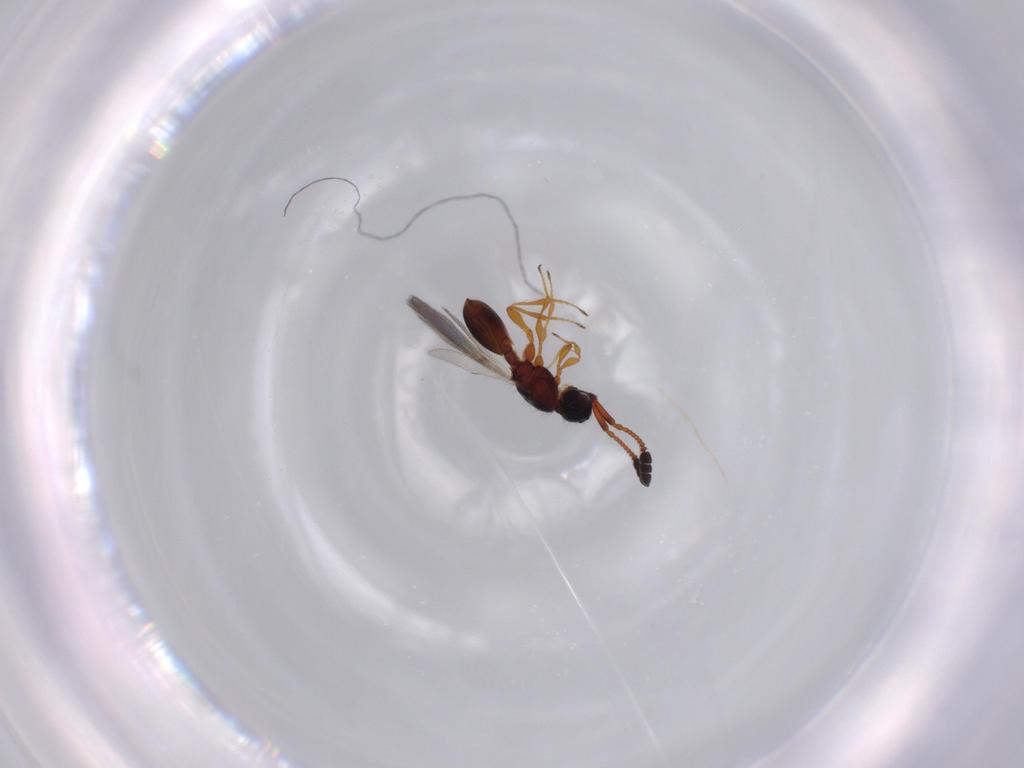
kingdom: Animalia
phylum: Arthropoda
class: Insecta
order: Hymenoptera
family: Diapriidae
